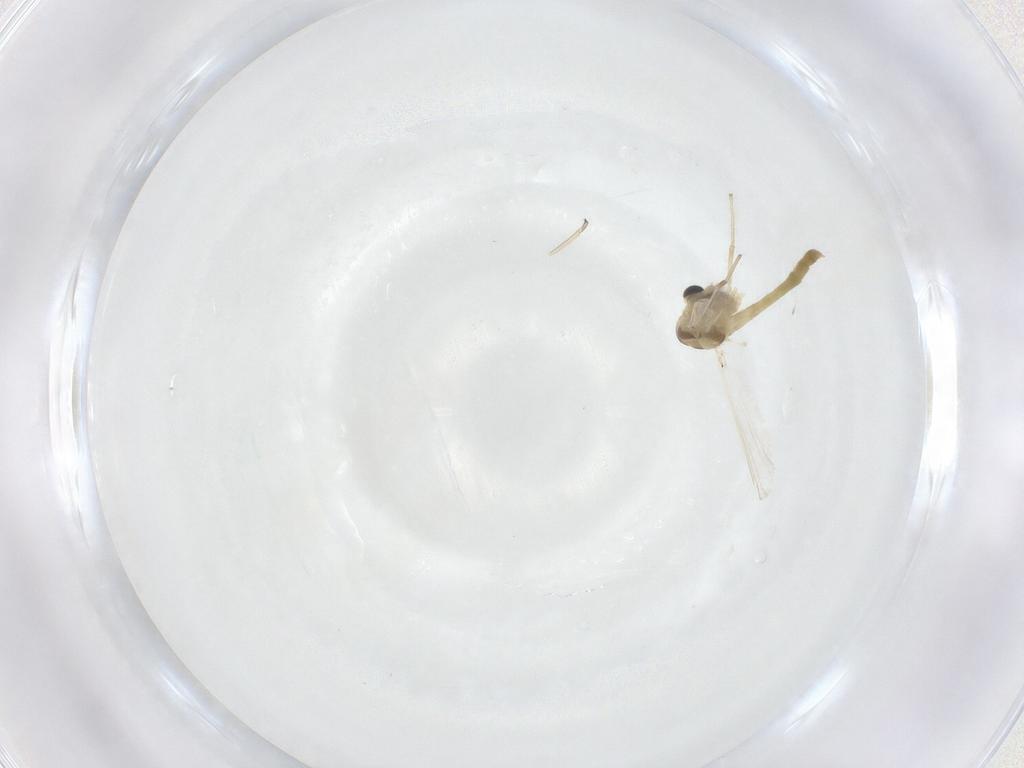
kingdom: Animalia
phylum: Arthropoda
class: Insecta
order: Diptera
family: Chironomidae
